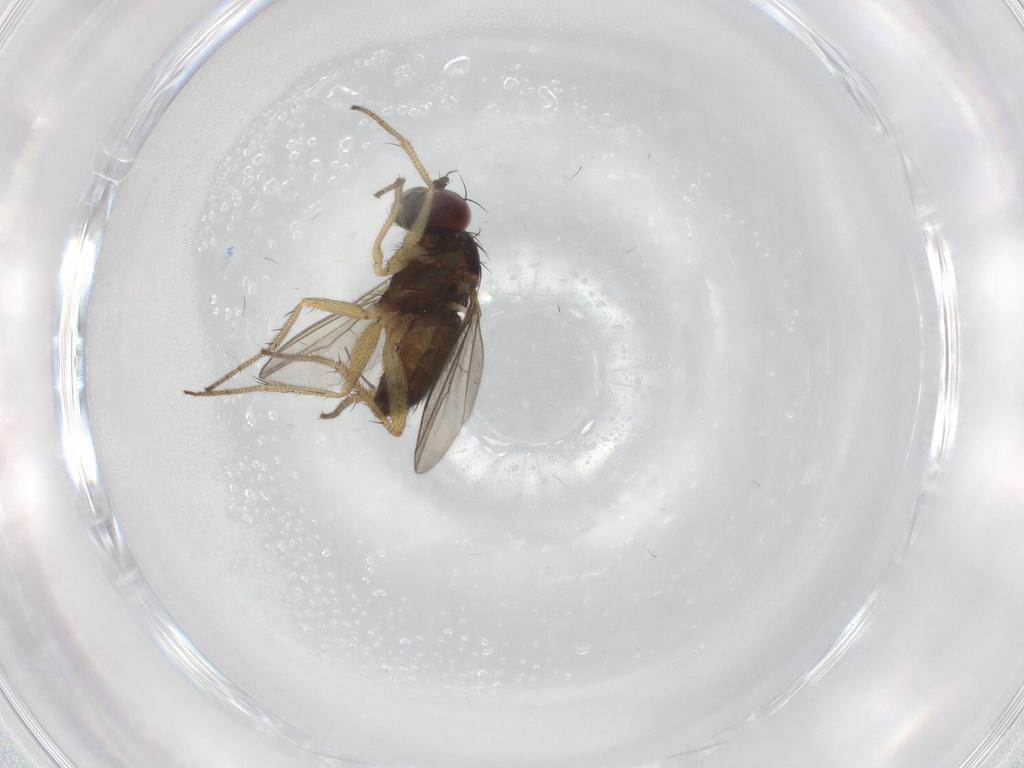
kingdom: Animalia
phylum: Arthropoda
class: Insecta
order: Diptera
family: Dolichopodidae
